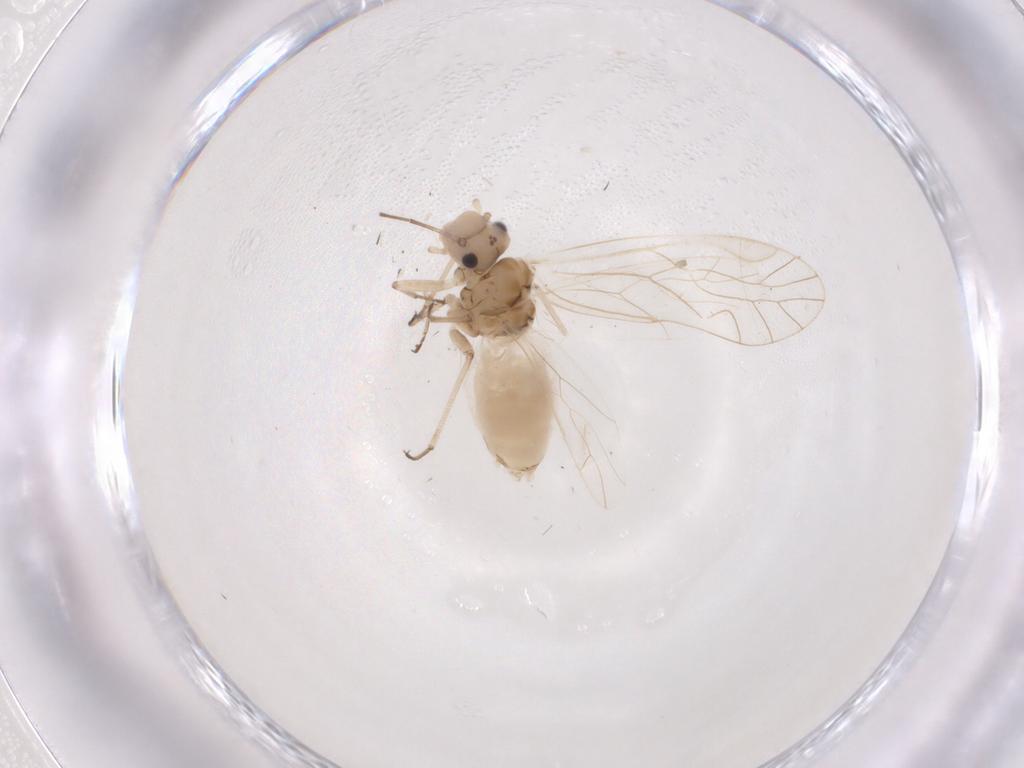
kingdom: Animalia
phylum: Arthropoda
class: Insecta
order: Psocodea
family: Elipsocidae
